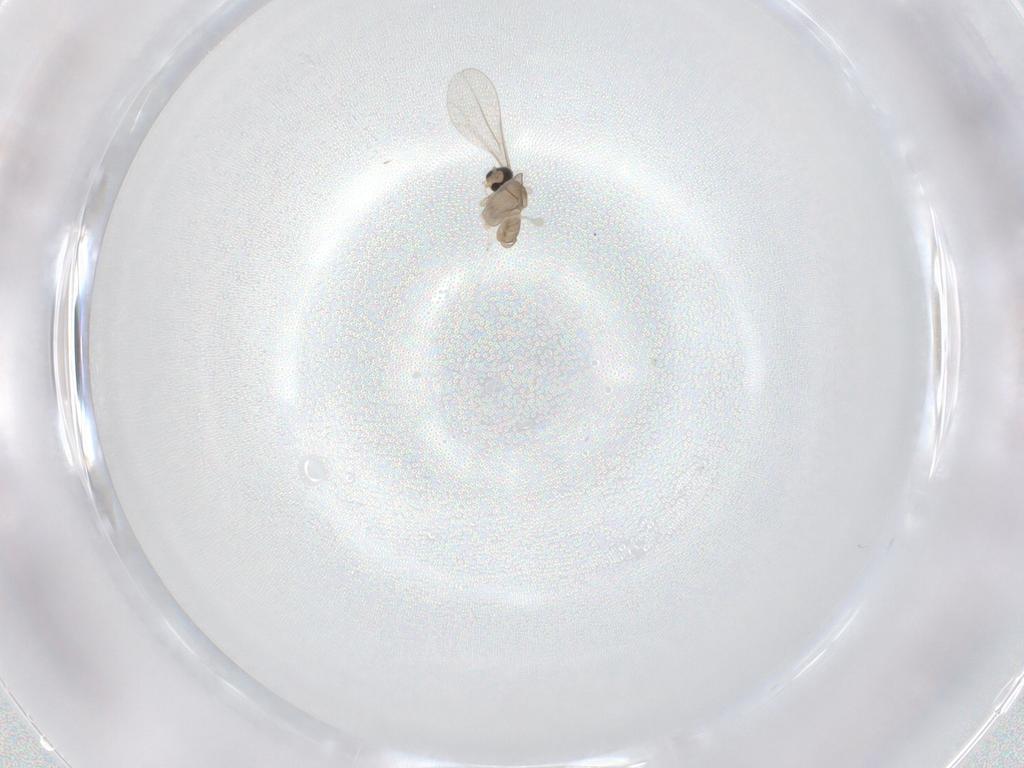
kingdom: Animalia
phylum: Arthropoda
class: Insecta
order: Diptera
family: Cecidomyiidae
